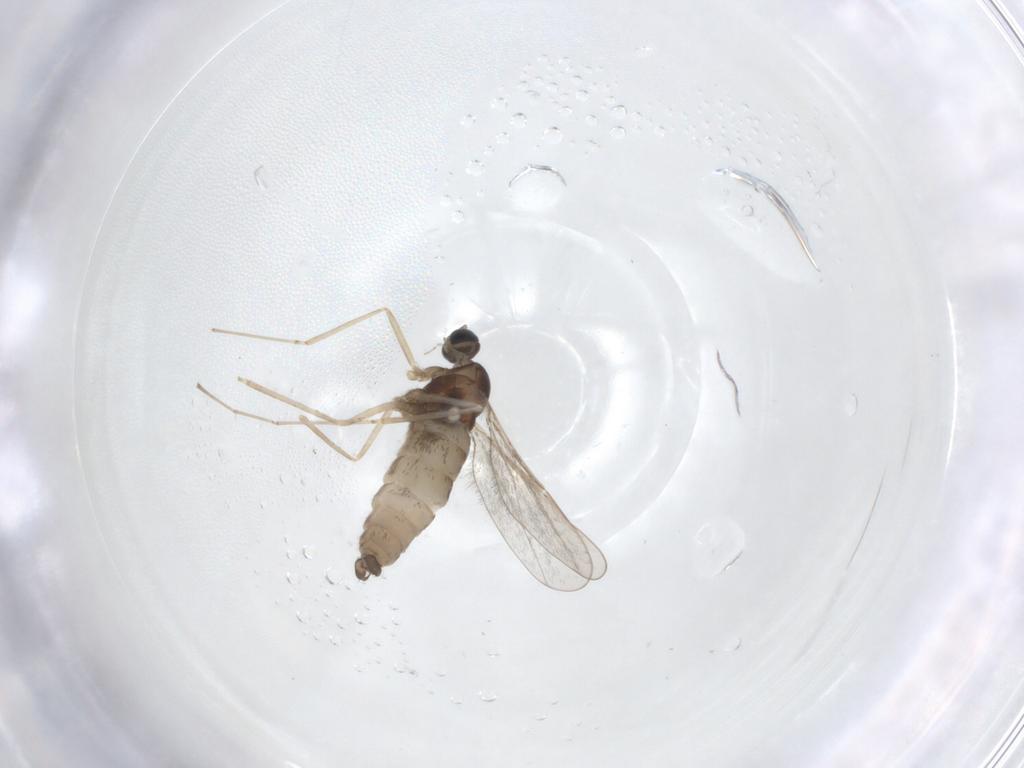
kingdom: Animalia
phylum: Arthropoda
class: Insecta
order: Diptera
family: Cecidomyiidae
